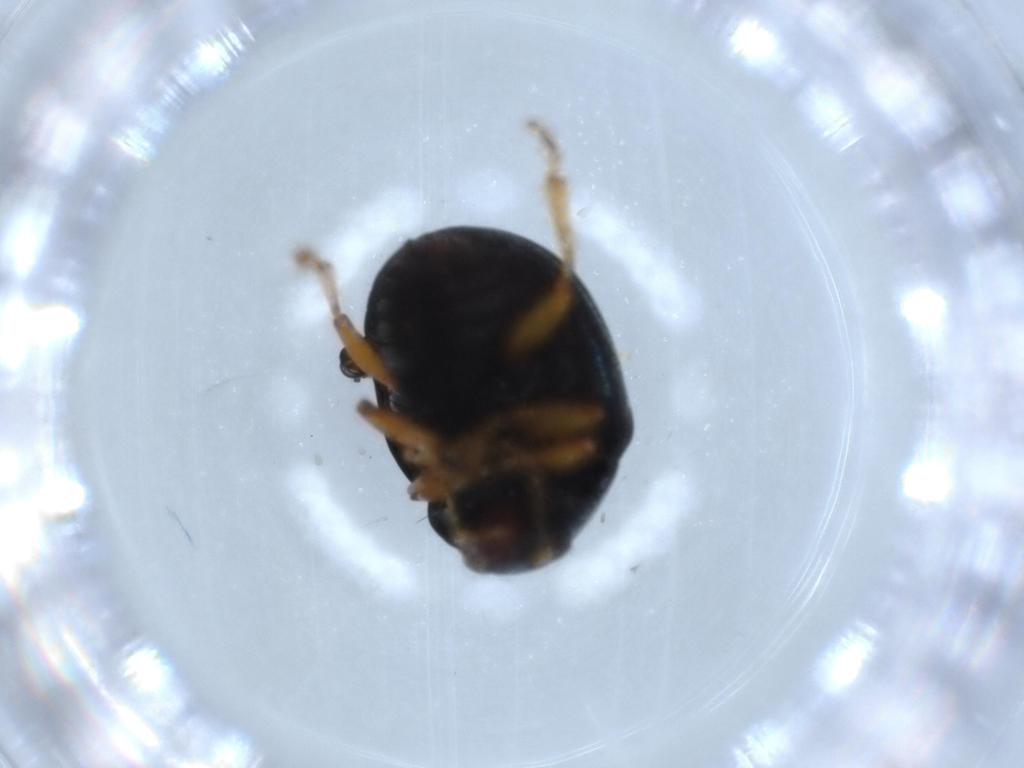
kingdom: Animalia
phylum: Arthropoda
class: Insecta
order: Coleoptera
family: Chrysomelidae
